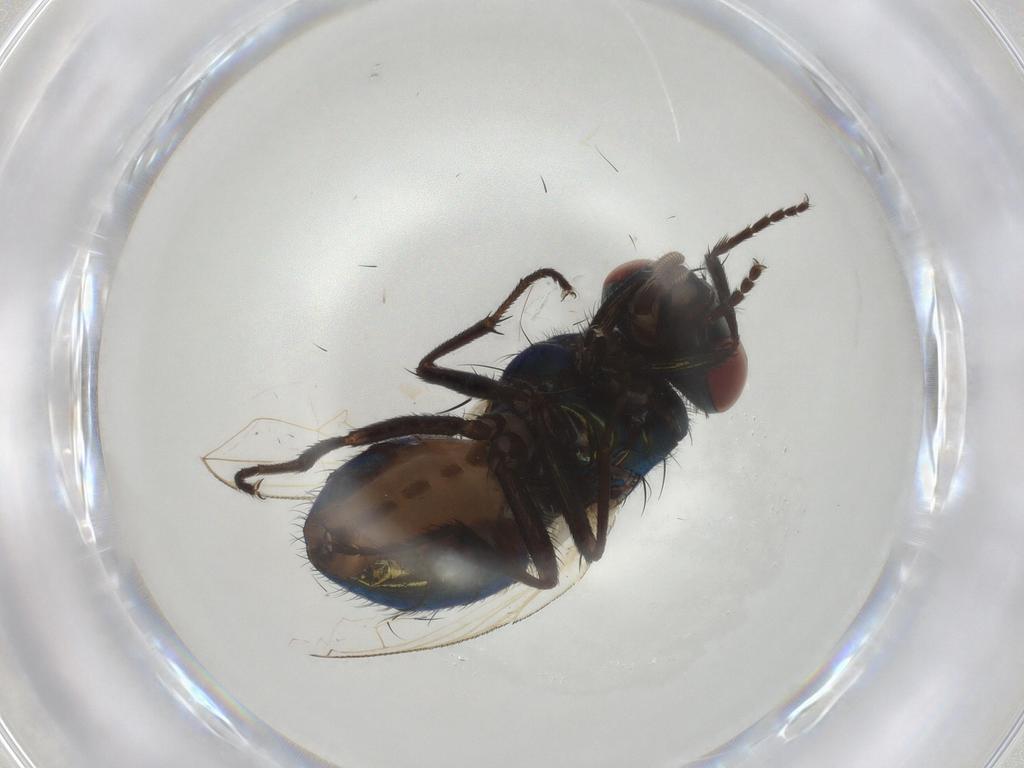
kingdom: Animalia
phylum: Arthropoda
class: Insecta
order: Diptera
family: Muscidae
